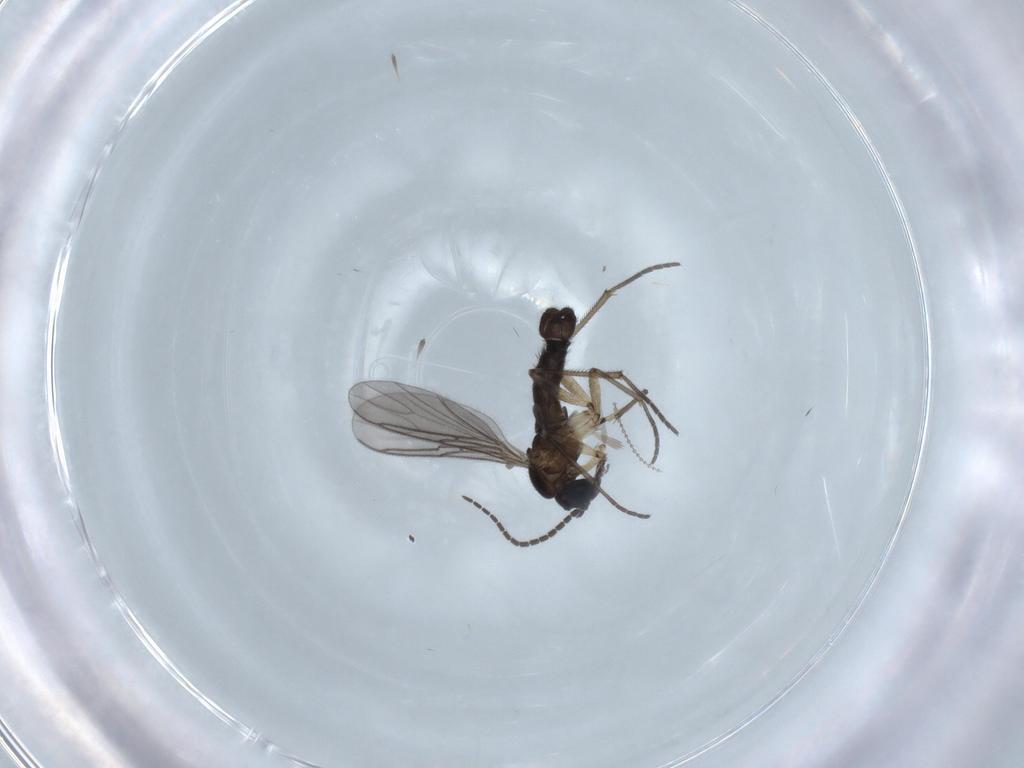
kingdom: Animalia
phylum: Arthropoda
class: Insecta
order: Diptera
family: Sciaridae
